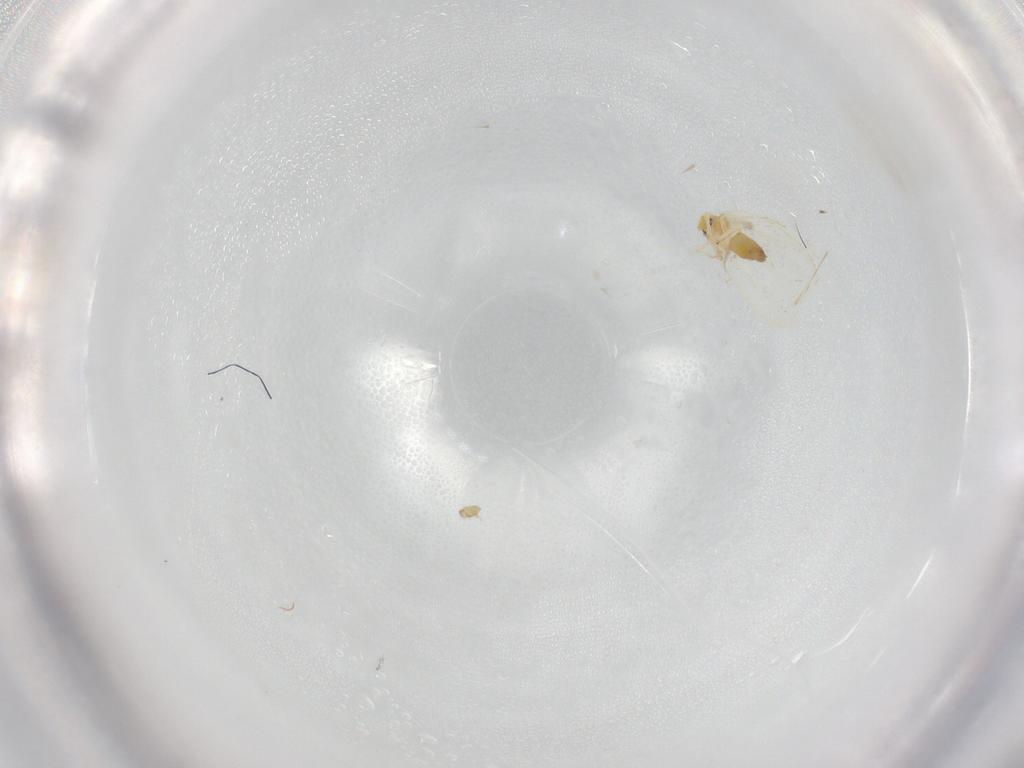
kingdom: Animalia
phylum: Arthropoda
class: Insecta
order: Hemiptera
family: Aleyrodidae
